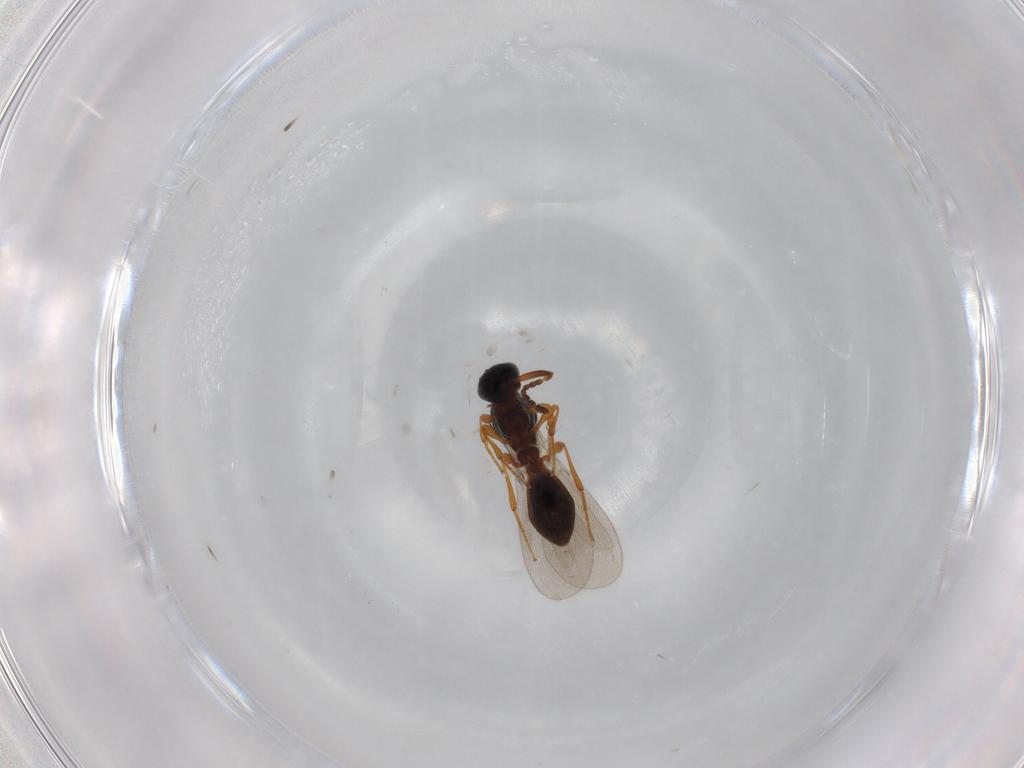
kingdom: Animalia
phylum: Arthropoda
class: Insecta
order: Hymenoptera
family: Platygastridae
